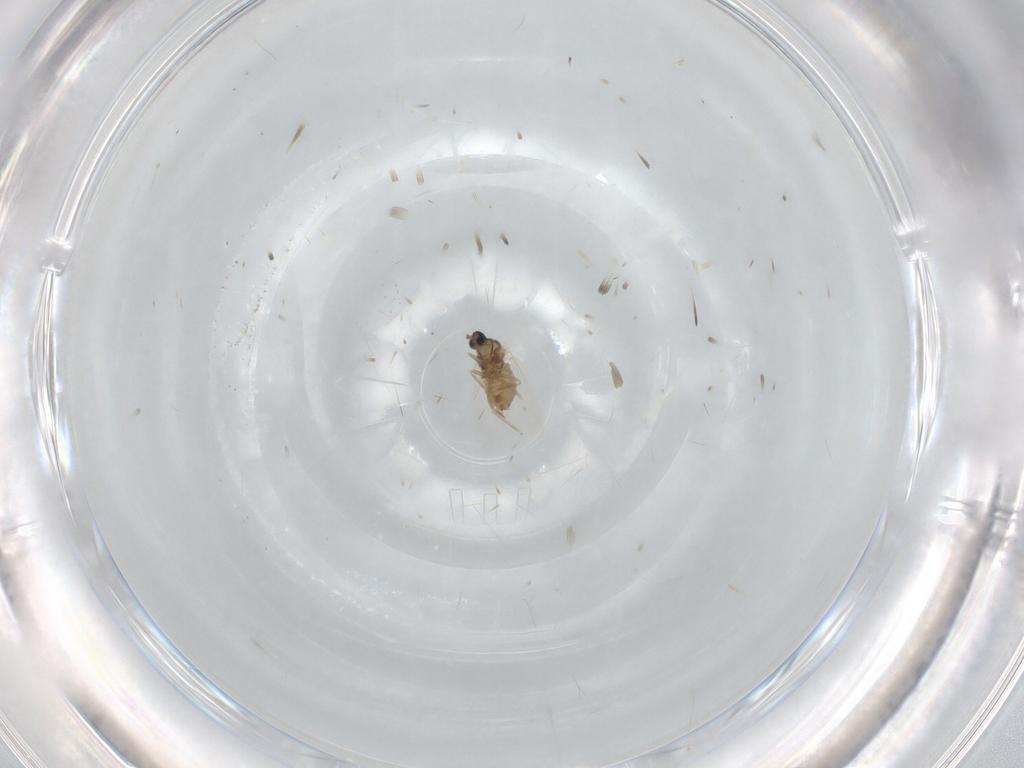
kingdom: Animalia
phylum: Arthropoda
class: Insecta
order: Diptera
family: Cecidomyiidae
